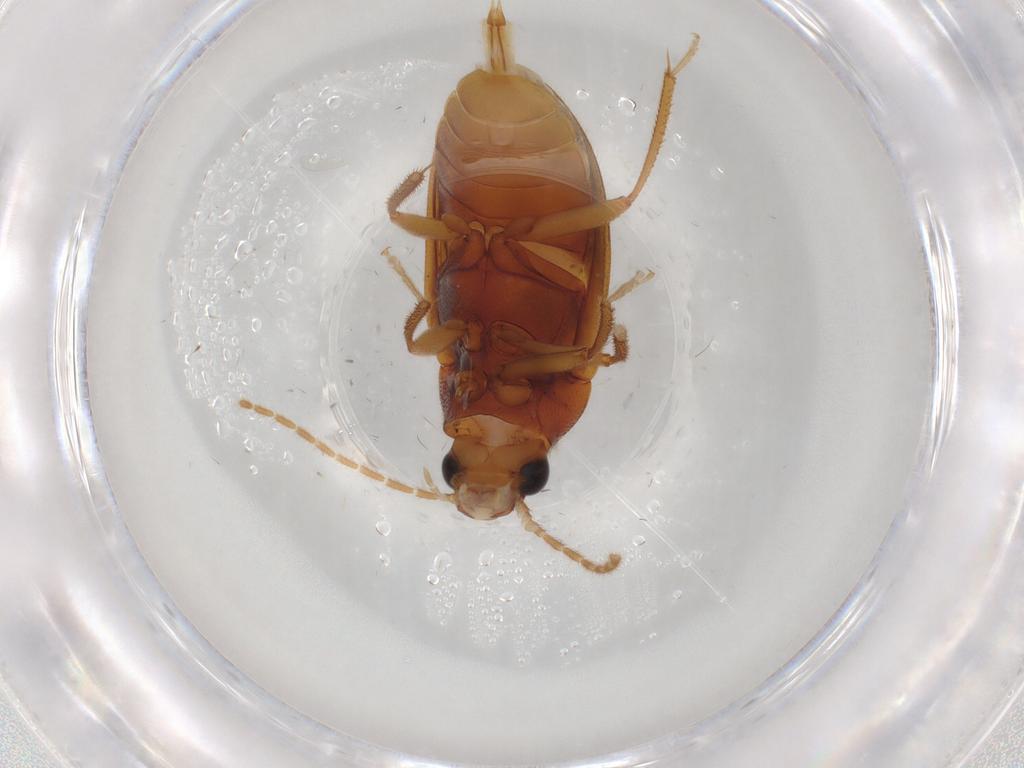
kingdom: Animalia
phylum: Arthropoda
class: Insecta
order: Coleoptera
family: Ptilodactylidae
